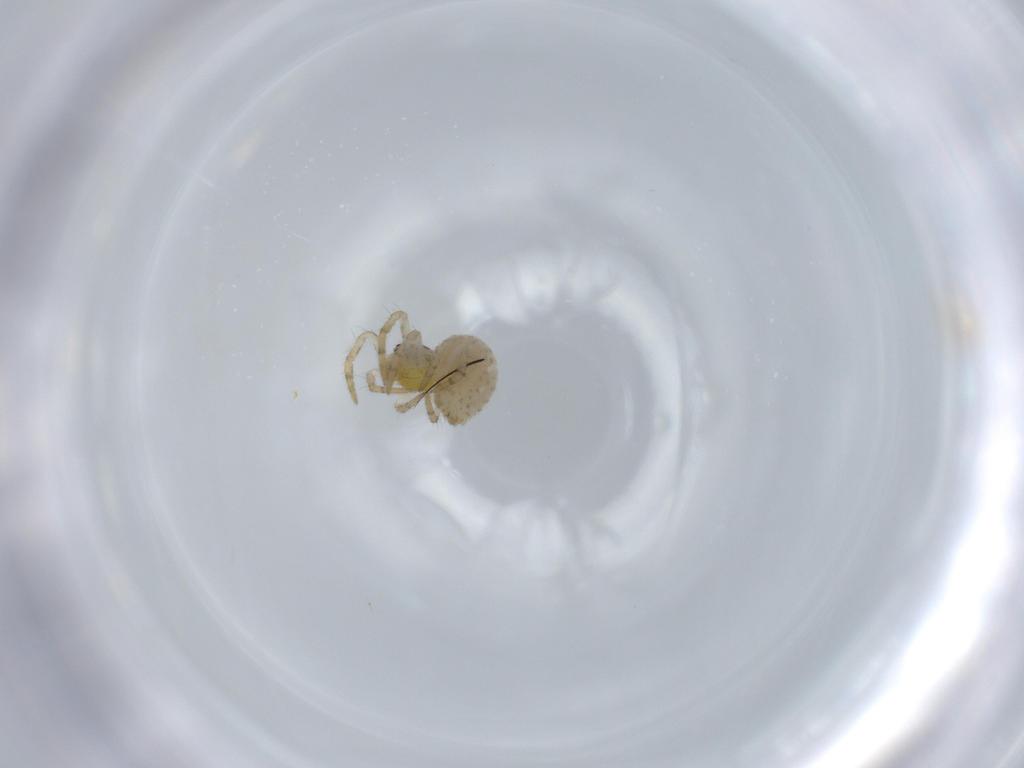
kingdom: Animalia
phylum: Arthropoda
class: Arachnida
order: Araneae
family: Theridiidae
